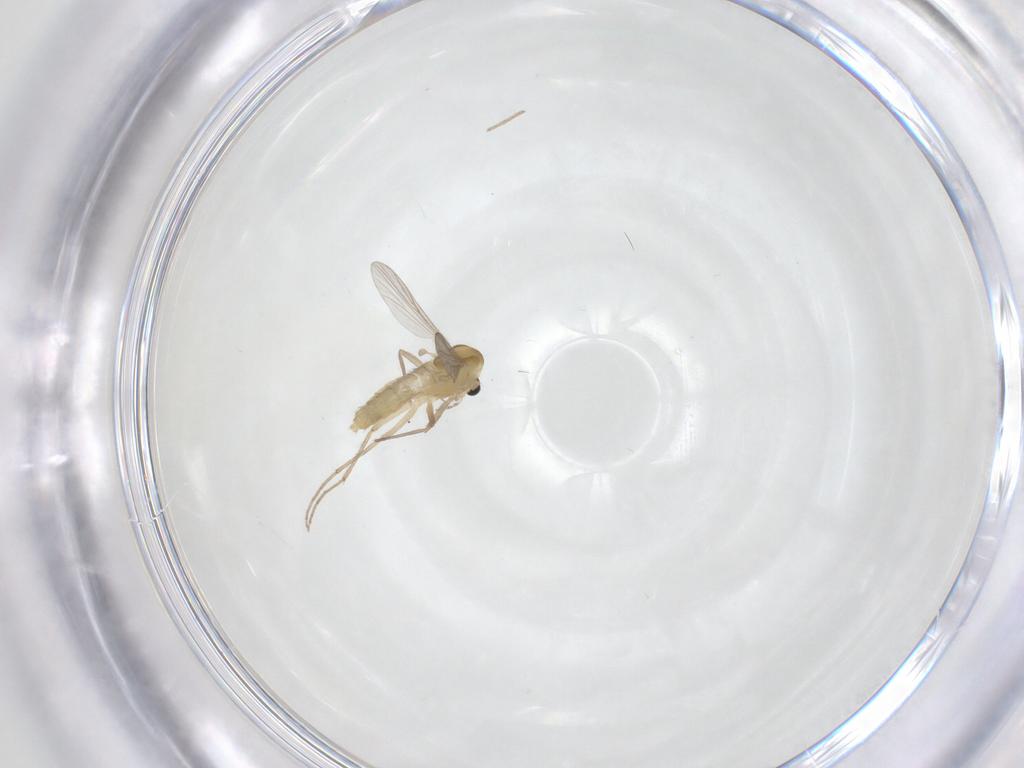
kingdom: Animalia
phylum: Arthropoda
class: Insecta
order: Diptera
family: Chironomidae
